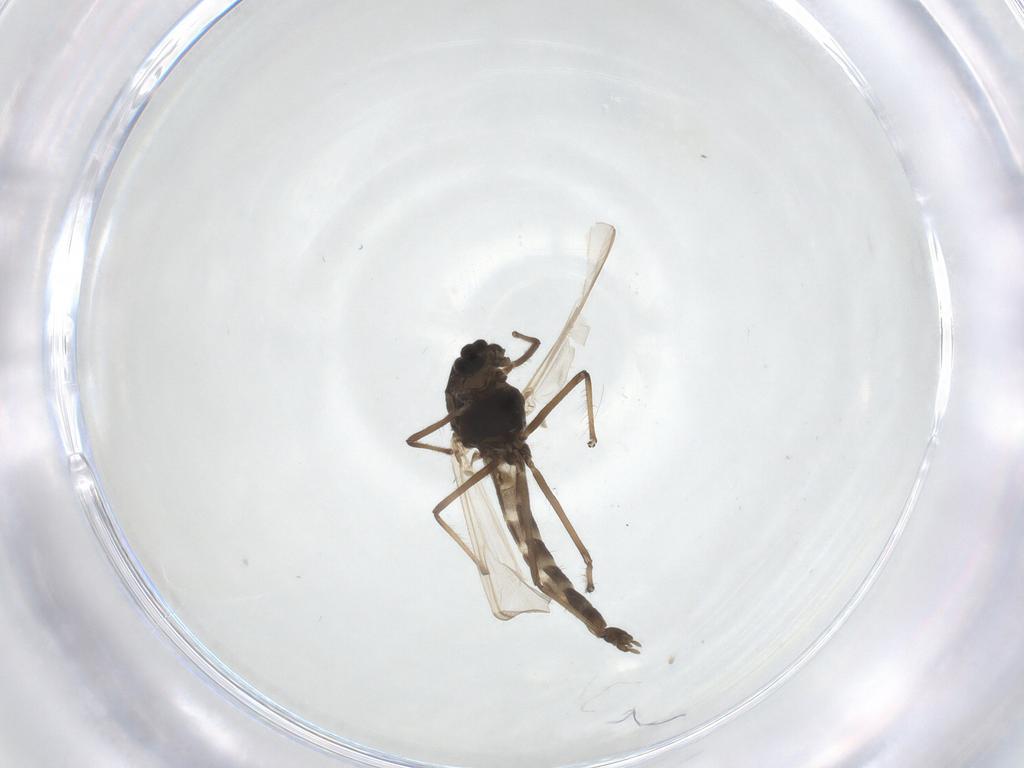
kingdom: Animalia
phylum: Arthropoda
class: Insecta
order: Diptera
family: Chironomidae
